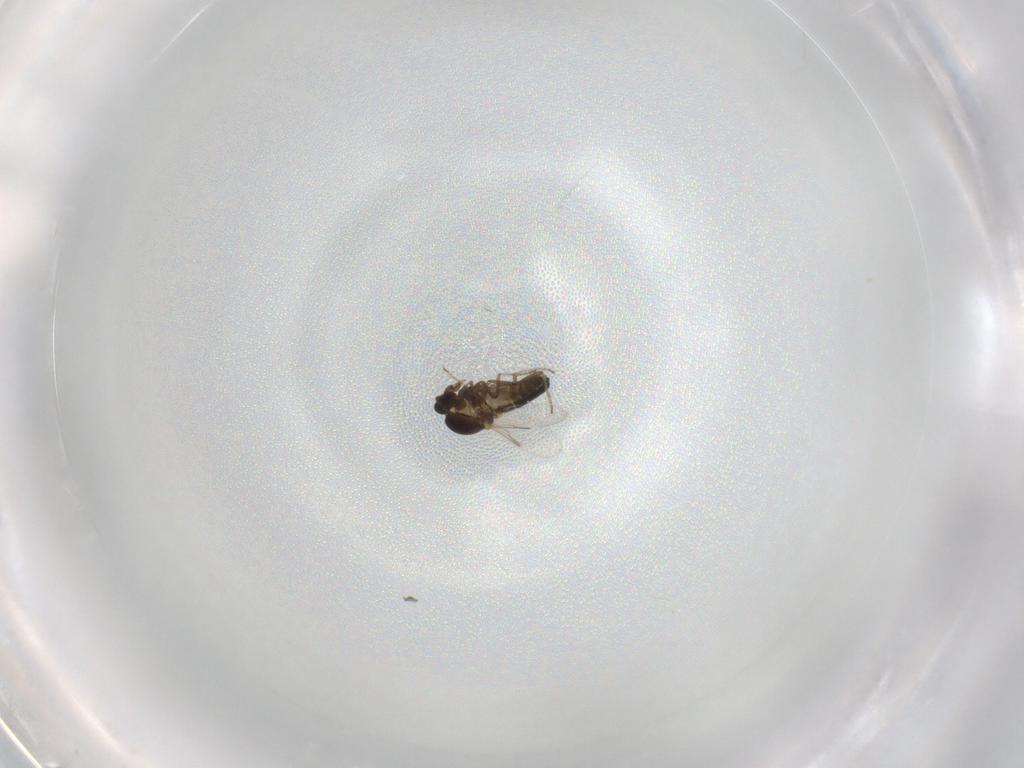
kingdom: Animalia
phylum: Arthropoda
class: Insecta
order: Diptera
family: Ceratopogonidae
